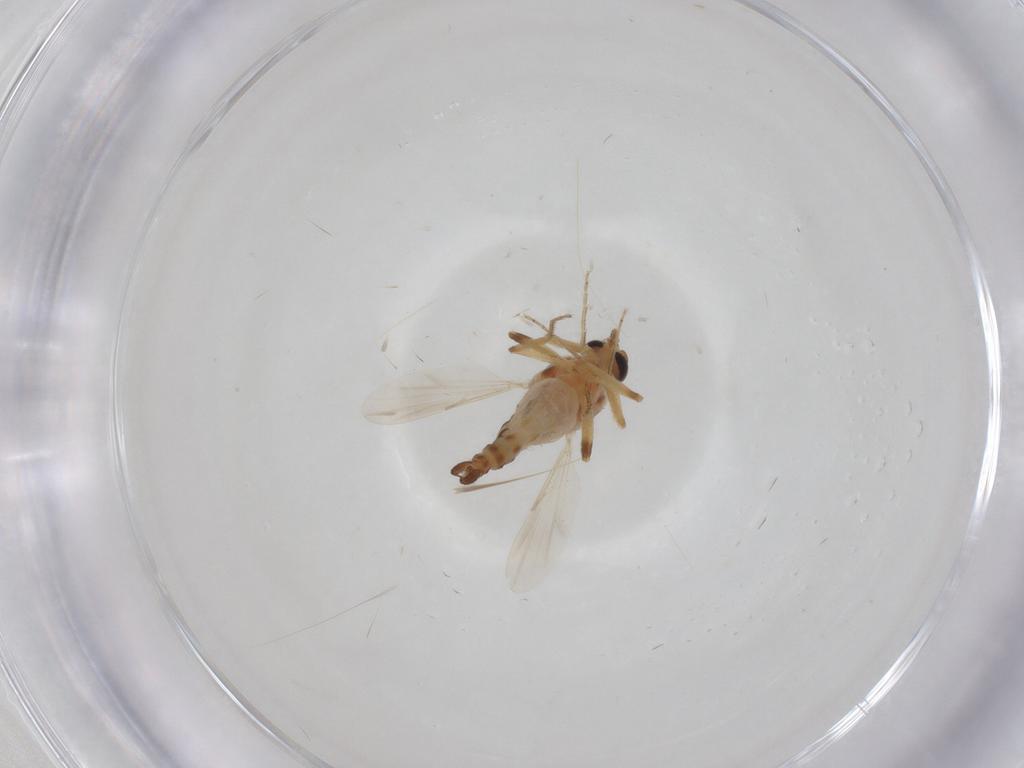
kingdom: Animalia
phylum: Arthropoda
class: Insecta
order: Diptera
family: Ceratopogonidae
